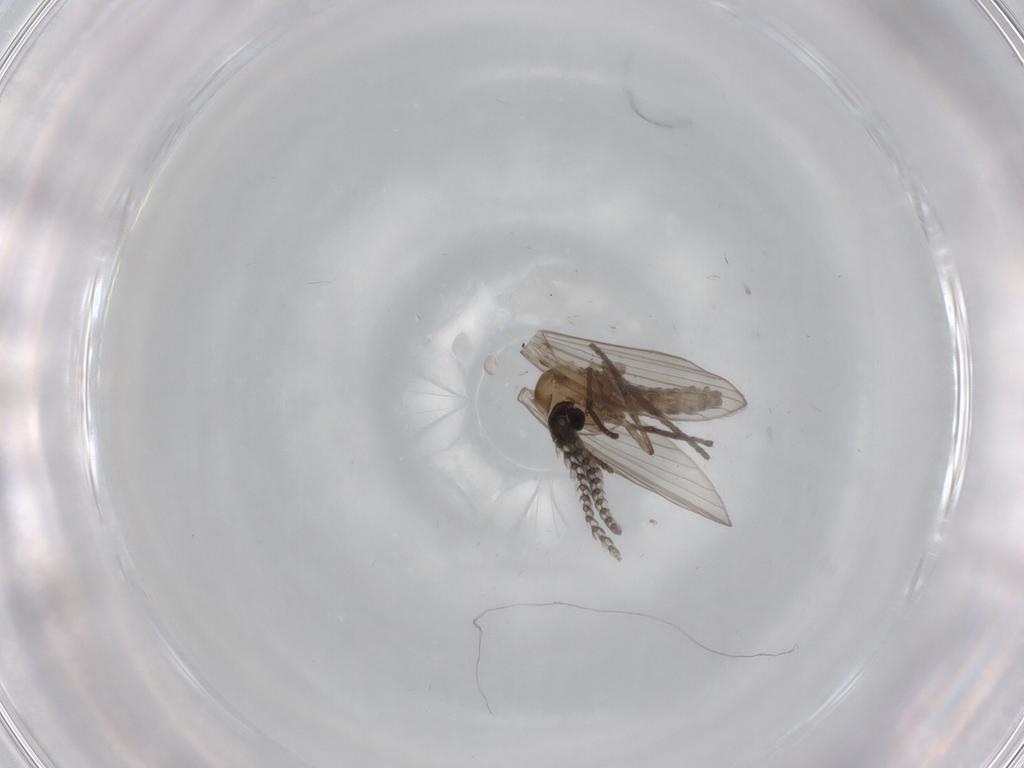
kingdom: Animalia
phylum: Arthropoda
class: Insecta
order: Diptera
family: Psychodidae
